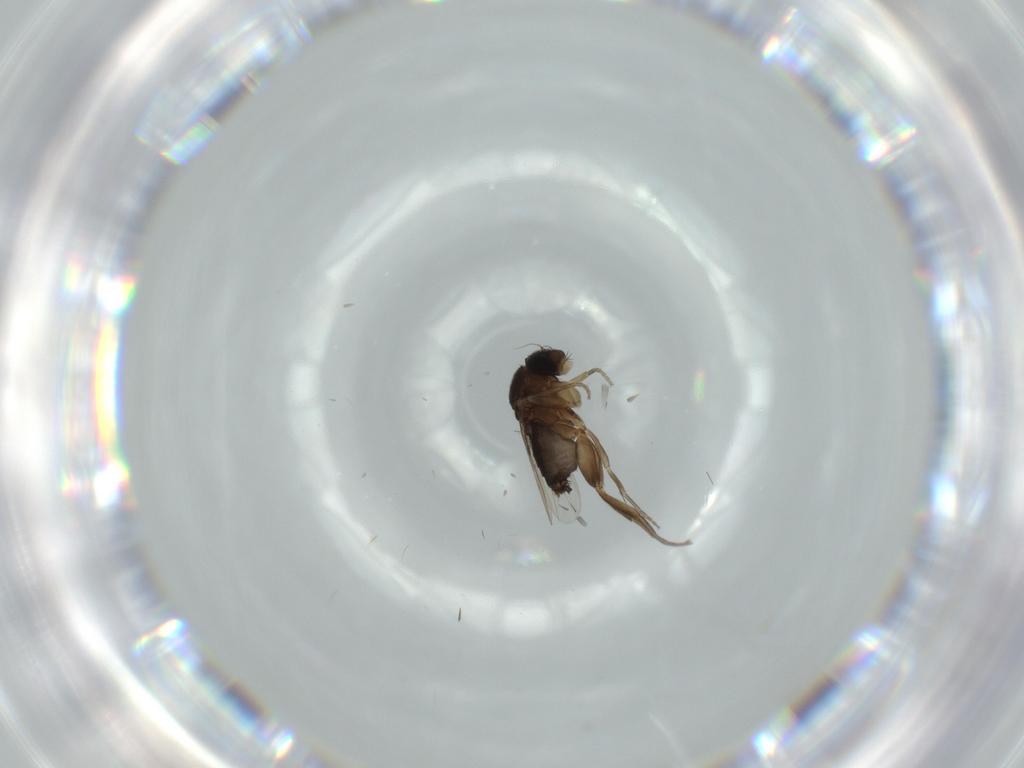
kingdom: Animalia
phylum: Arthropoda
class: Insecta
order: Diptera
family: Phoridae
